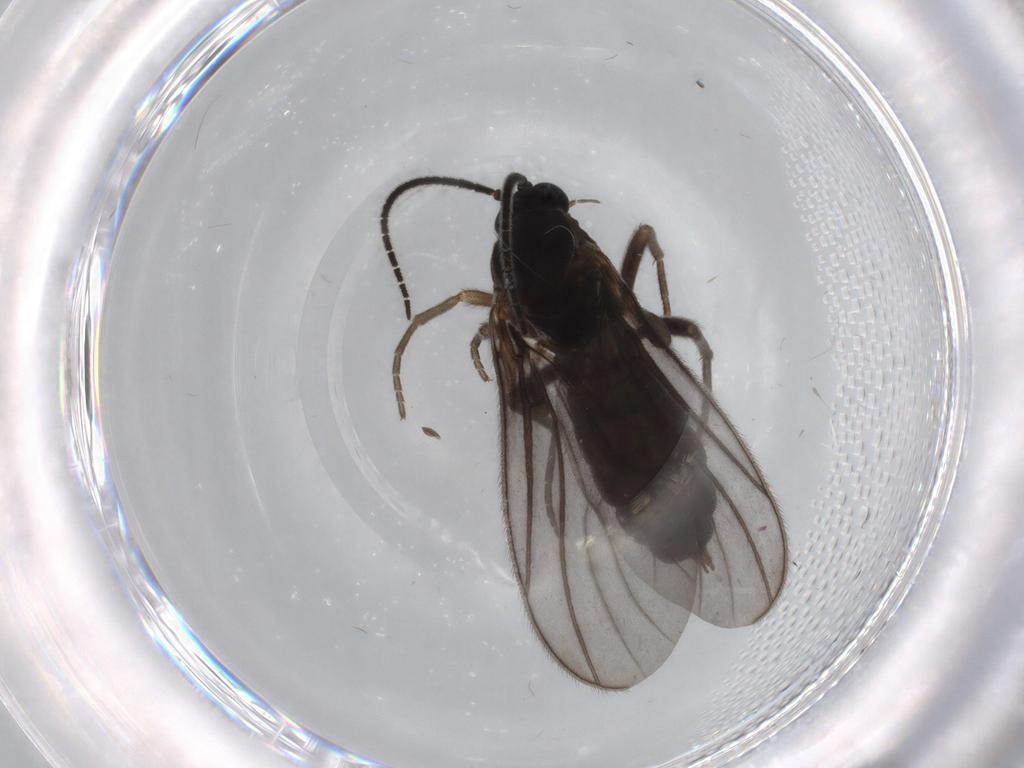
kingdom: Animalia
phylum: Arthropoda
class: Insecta
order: Diptera
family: Sciaridae
